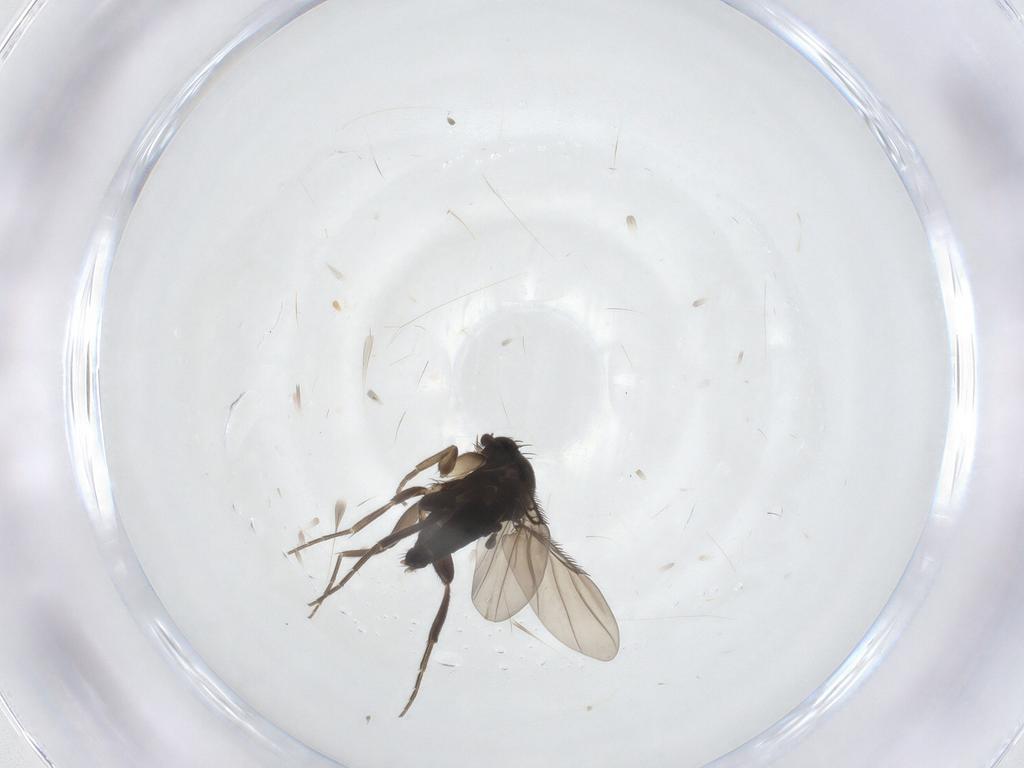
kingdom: Animalia
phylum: Arthropoda
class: Insecta
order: Diptera
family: Phoridae
